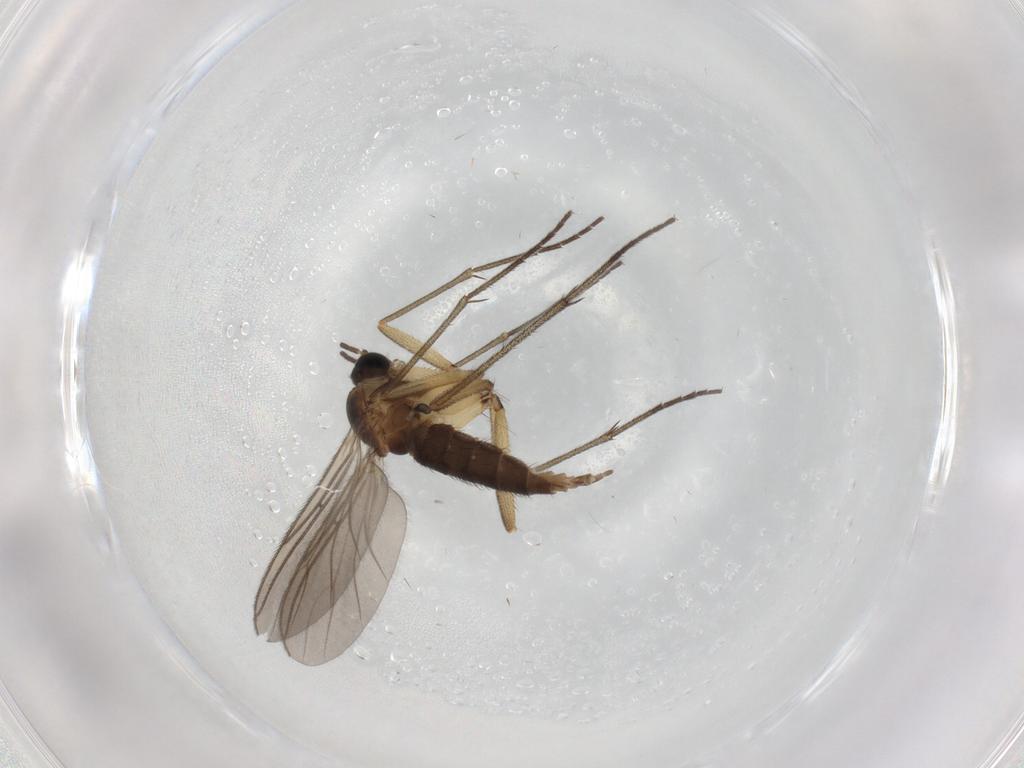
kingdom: Animalia
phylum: Arthropoda
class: Insecta
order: Diptera
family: Sciaridae
